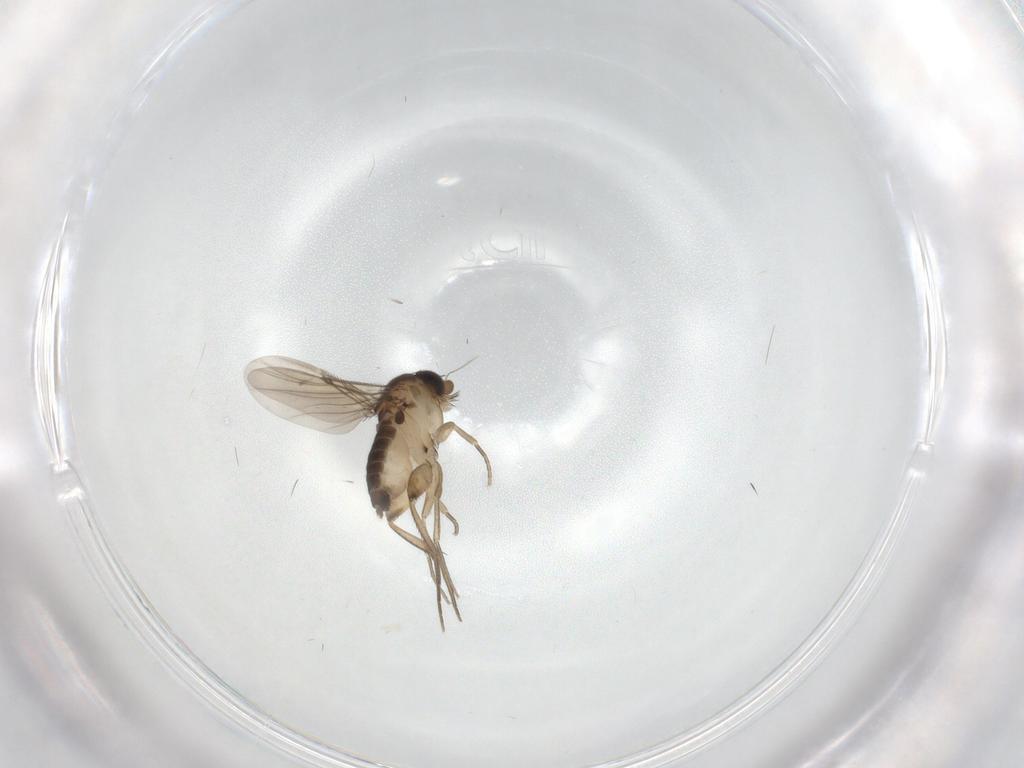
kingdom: Animalia
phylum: Arthropoda
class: Insecta
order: Diptera
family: Phoridae
